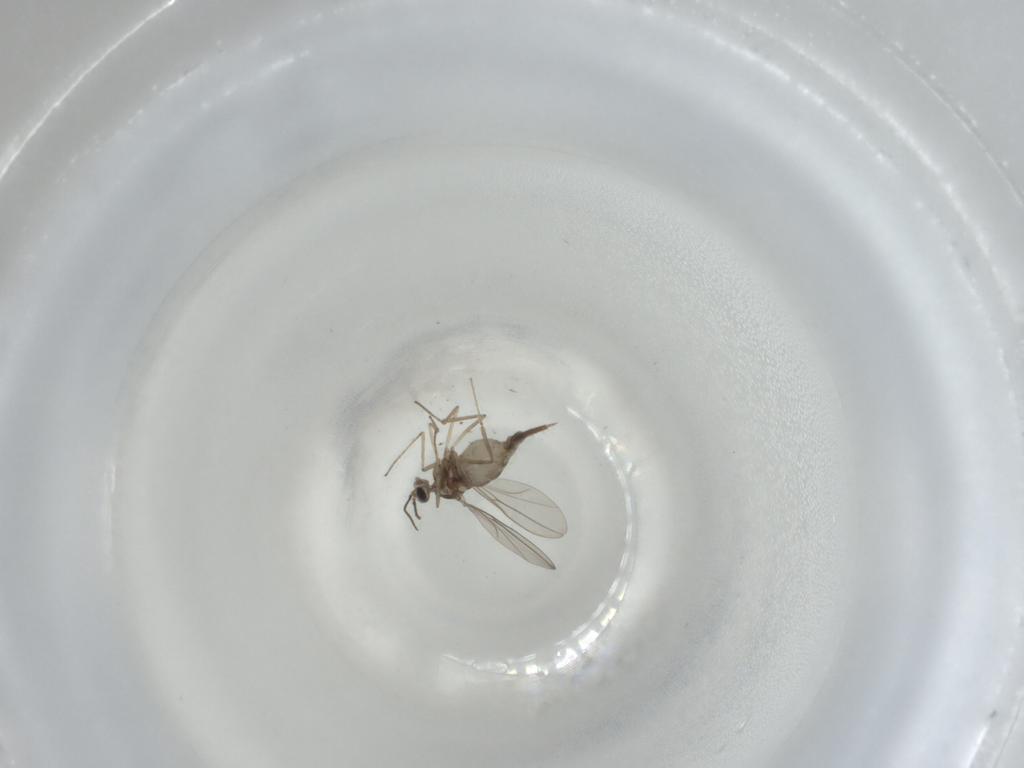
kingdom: Animalia
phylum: Arthropoda
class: Insecta
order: Diptera
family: Cecidomyiidae
